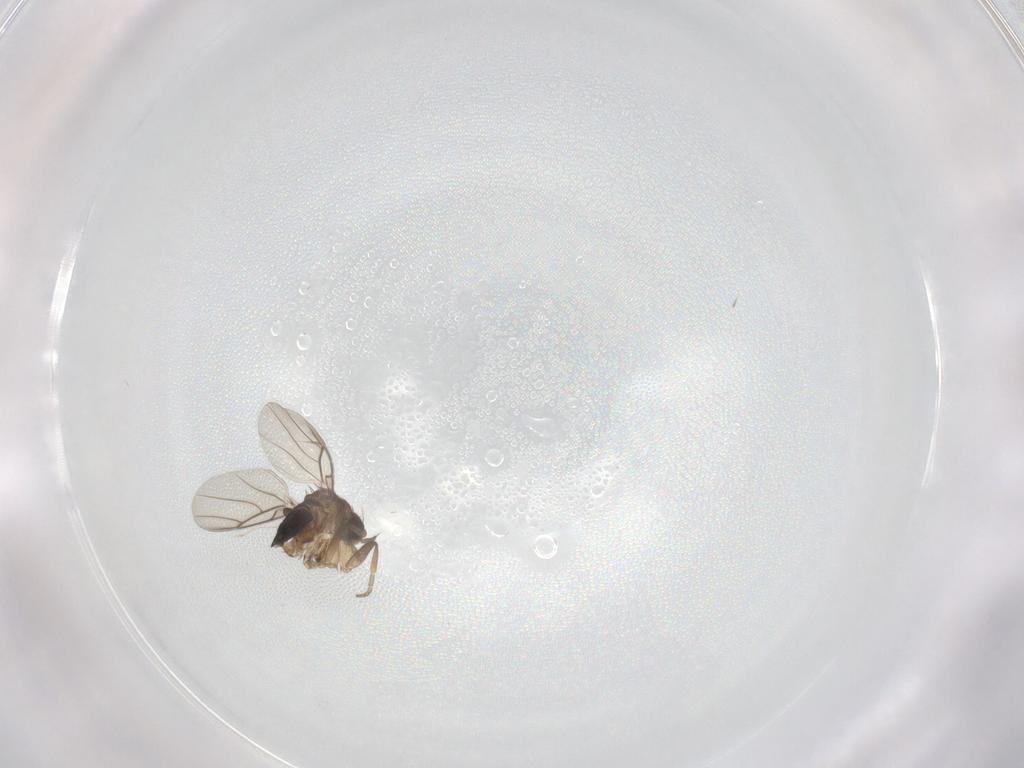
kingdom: Animalia
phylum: Arthropoda
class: Insecta
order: Diptera
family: Phoridae
